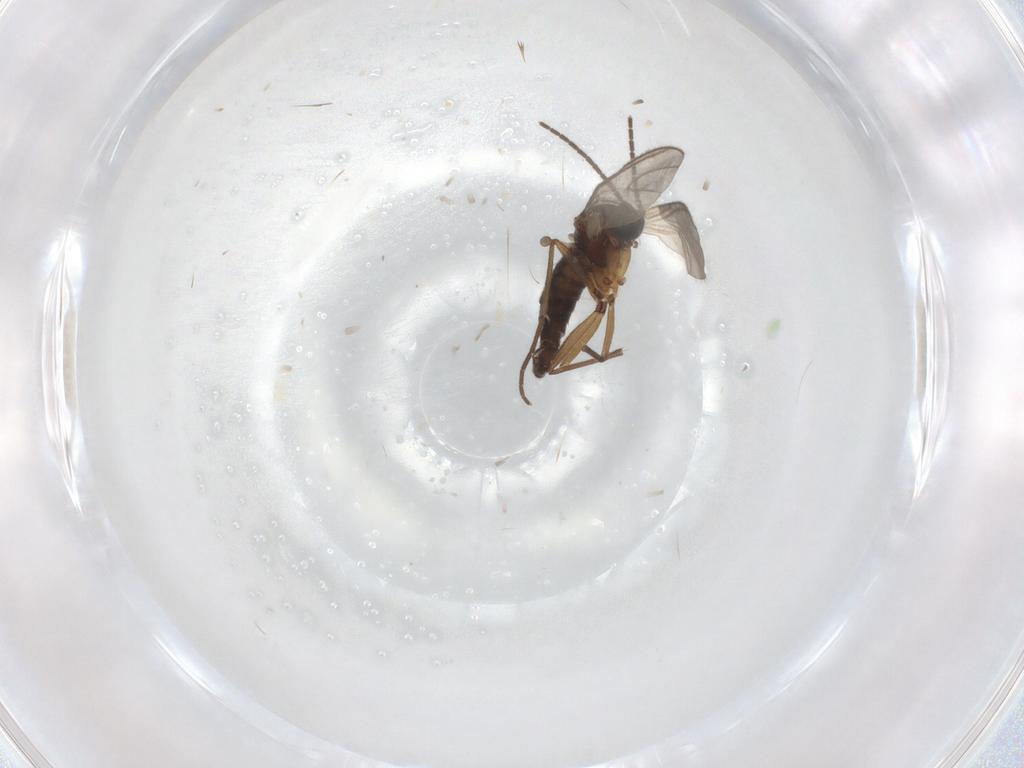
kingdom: Animalia
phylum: Arthropoda
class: Insecta
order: Diptera
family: Sciaridae
